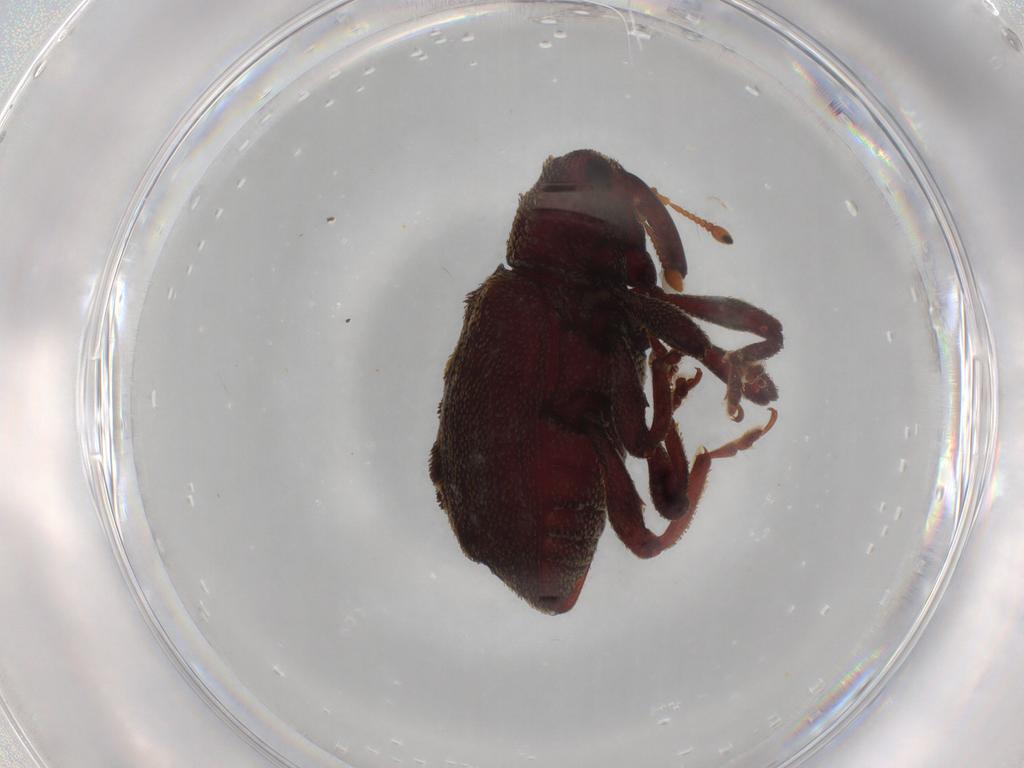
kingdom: Animalia
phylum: Arthropoda
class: Insecta
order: Coleoptera
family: Curculionidae
